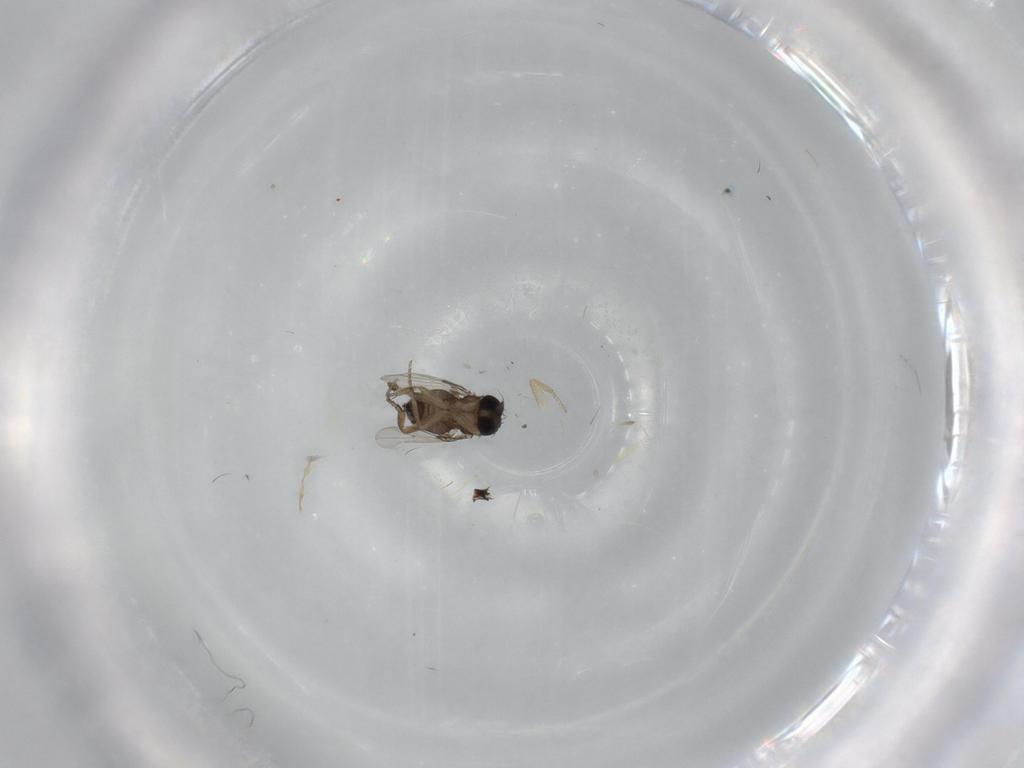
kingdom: Animalia
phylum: Arthropoda
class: Insecta
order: Diptera
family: Phoridae
